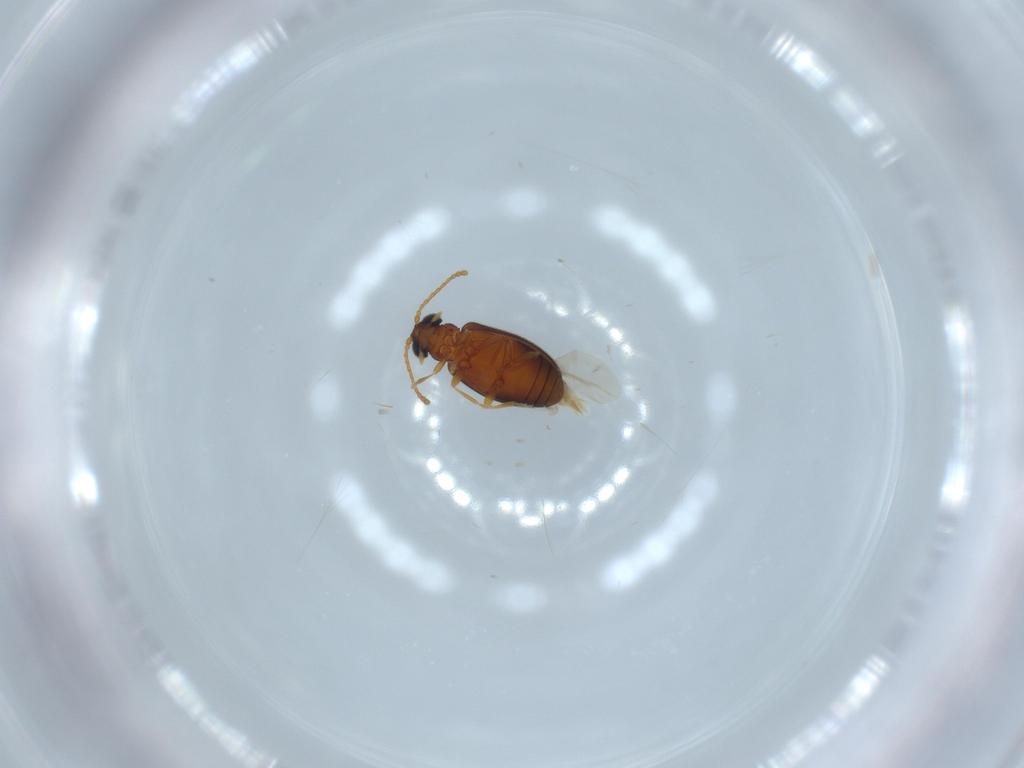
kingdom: Animalia
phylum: Arthropoda
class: Insecta
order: Coleoptera
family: Aderidae
